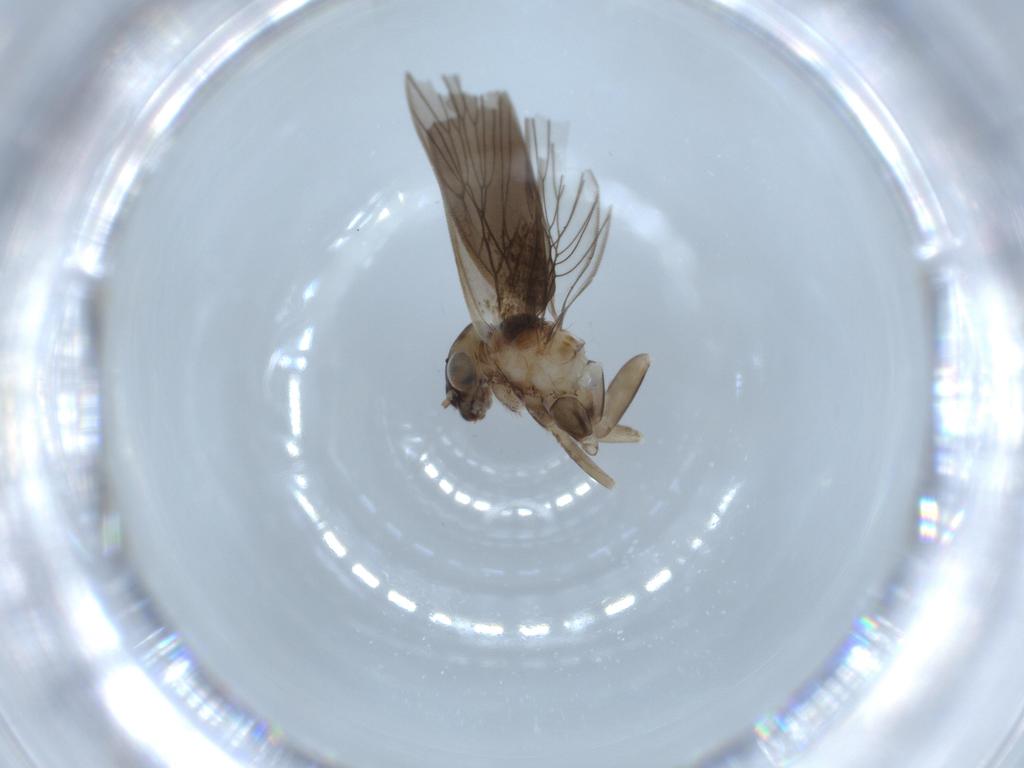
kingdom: Animalia
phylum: Arthropoda
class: Insecta
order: Psocodea
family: Lepidopsocidae
